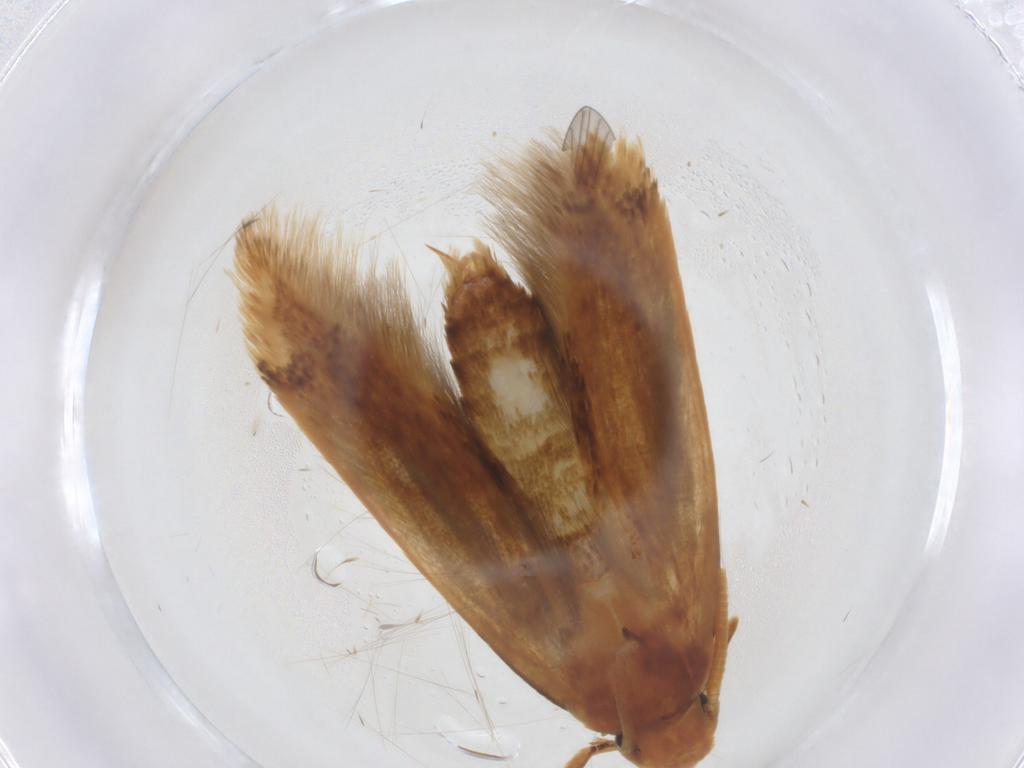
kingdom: Animalia
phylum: Arthropoda
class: Insecta
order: Lepidoptera
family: Tineidae
